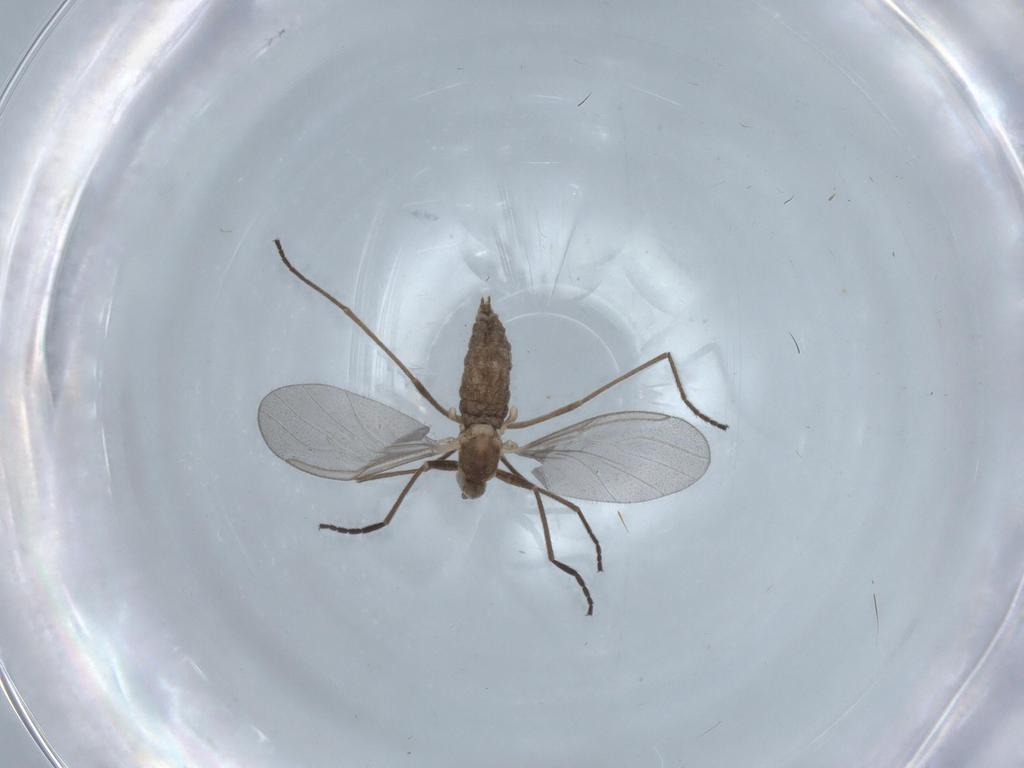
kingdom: Animalia
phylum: Arthropoda
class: Insecta
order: Diptera
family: Cecidomyiidae
